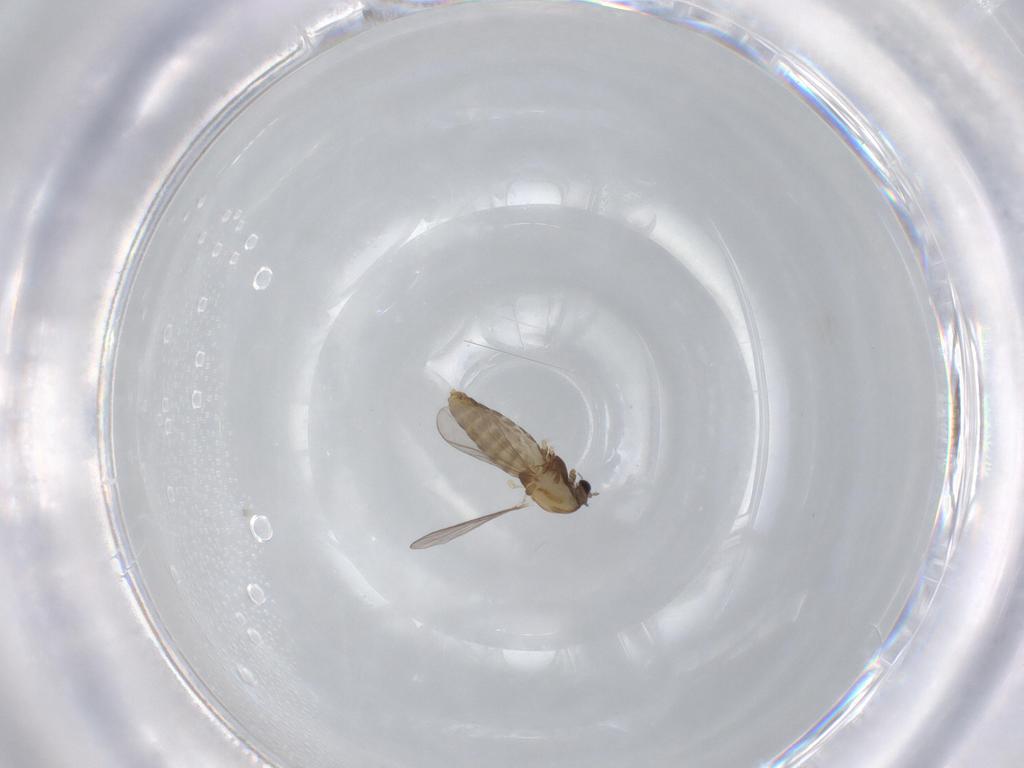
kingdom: Animalia
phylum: Arthropoda
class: Insecta
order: Diptera
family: Chironomidae
